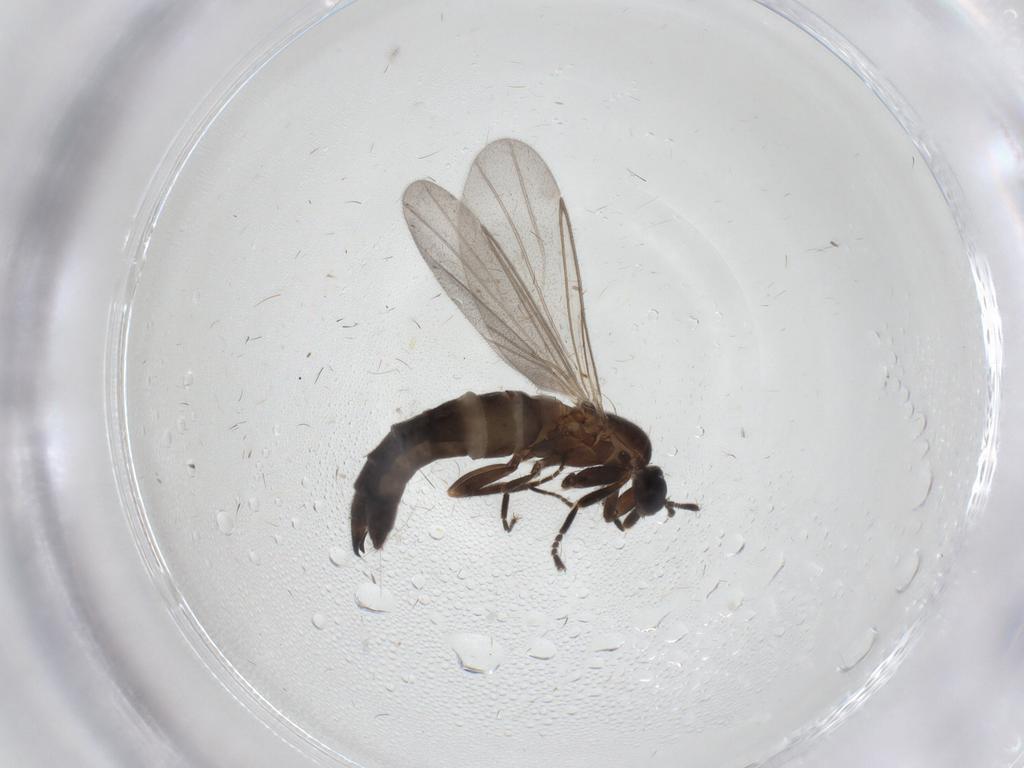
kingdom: Animalia
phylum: Arthropoda
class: Insecta
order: Diptera
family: Scatopsidae
